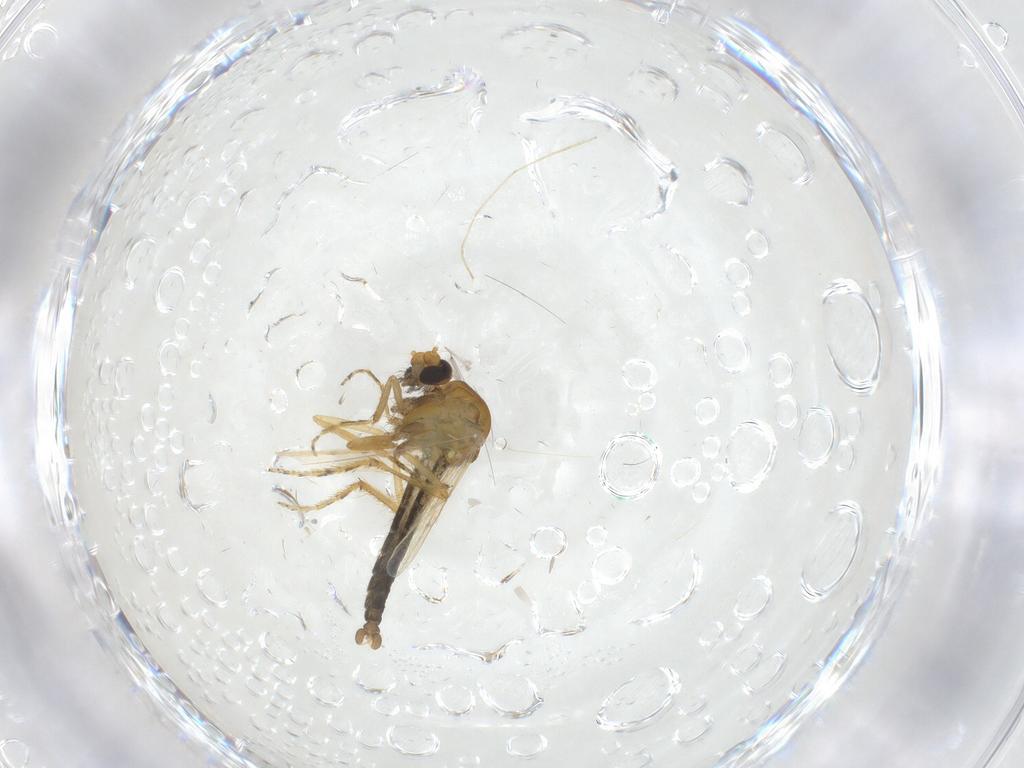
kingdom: Animalia
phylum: Arthropoda
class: Insecta
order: Diptera
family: Ceratopogonidae
